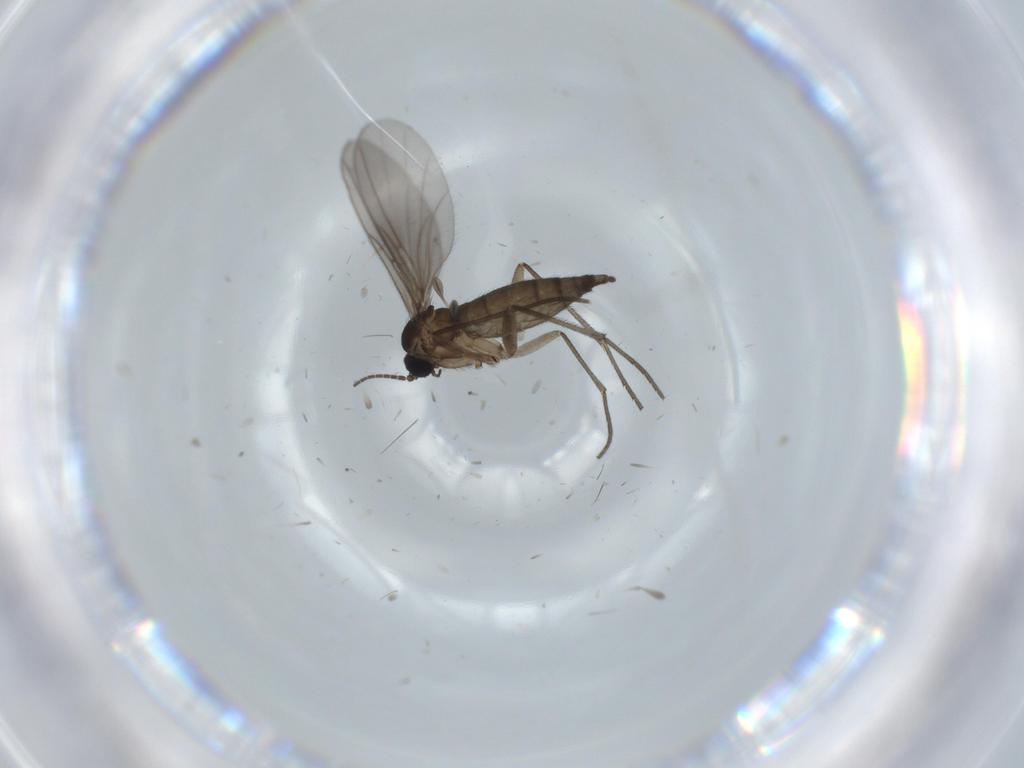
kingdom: Animalia
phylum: Arthropoda
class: Insecta
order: Diptera
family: Sciaridae
